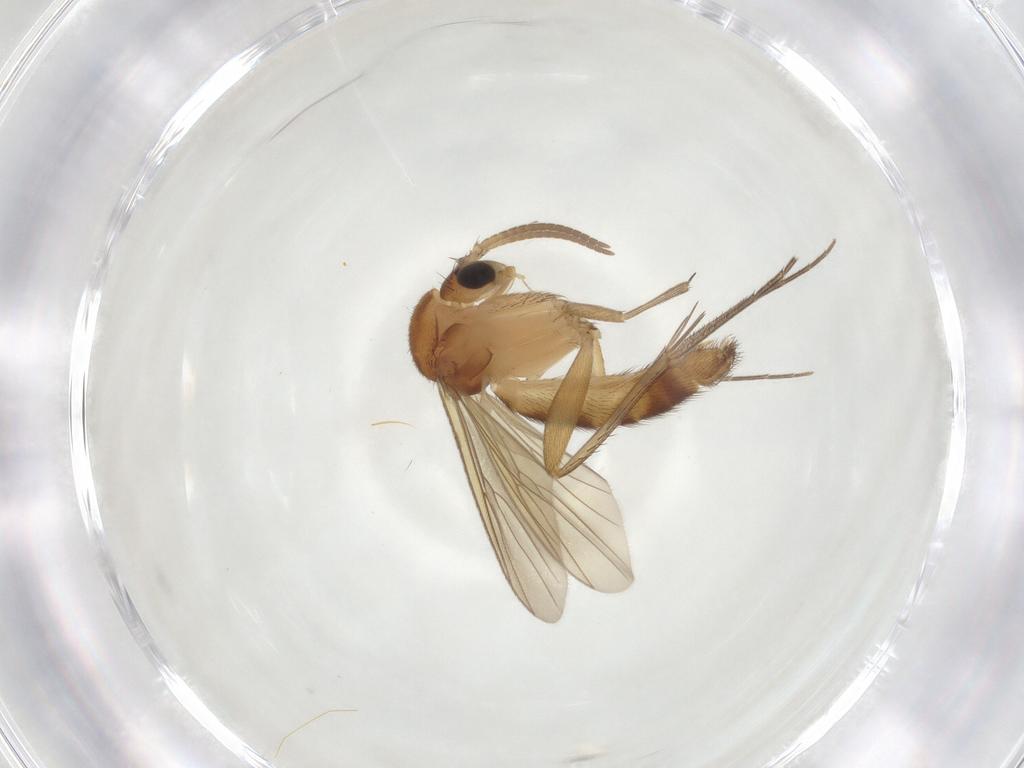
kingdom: Animalia
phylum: Arthropoda
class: Insecta
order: Diptera
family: Mycetophilidae
